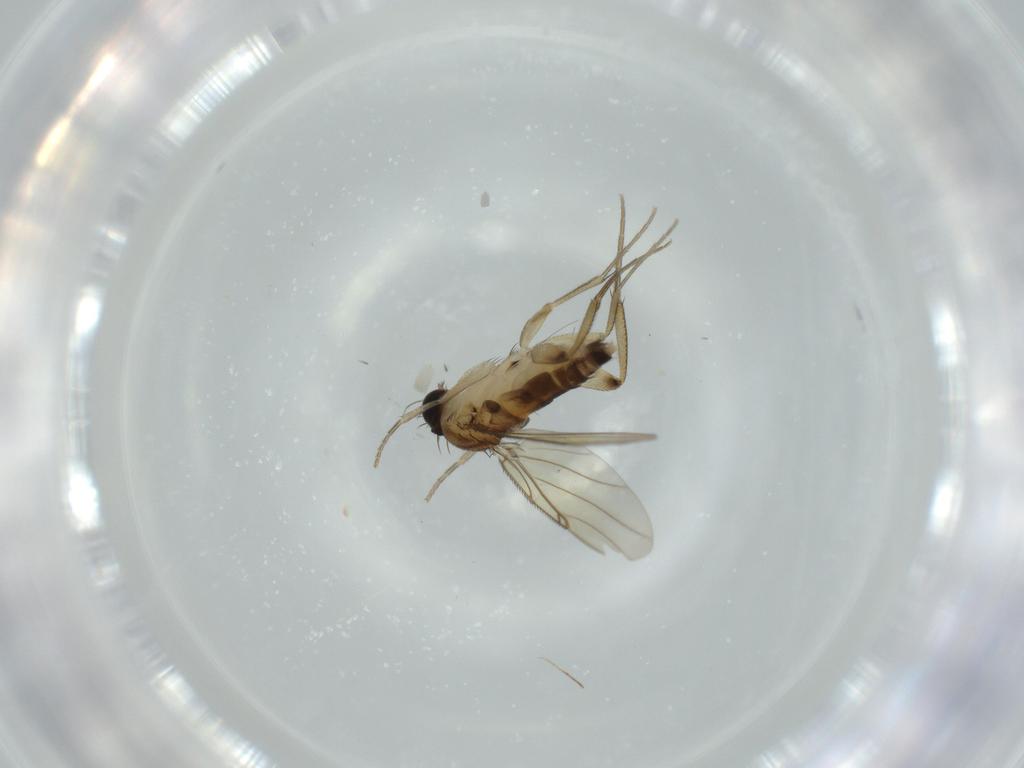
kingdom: Animalia
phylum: Arthropoda
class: Insecta
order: Diptera
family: Phoridae
